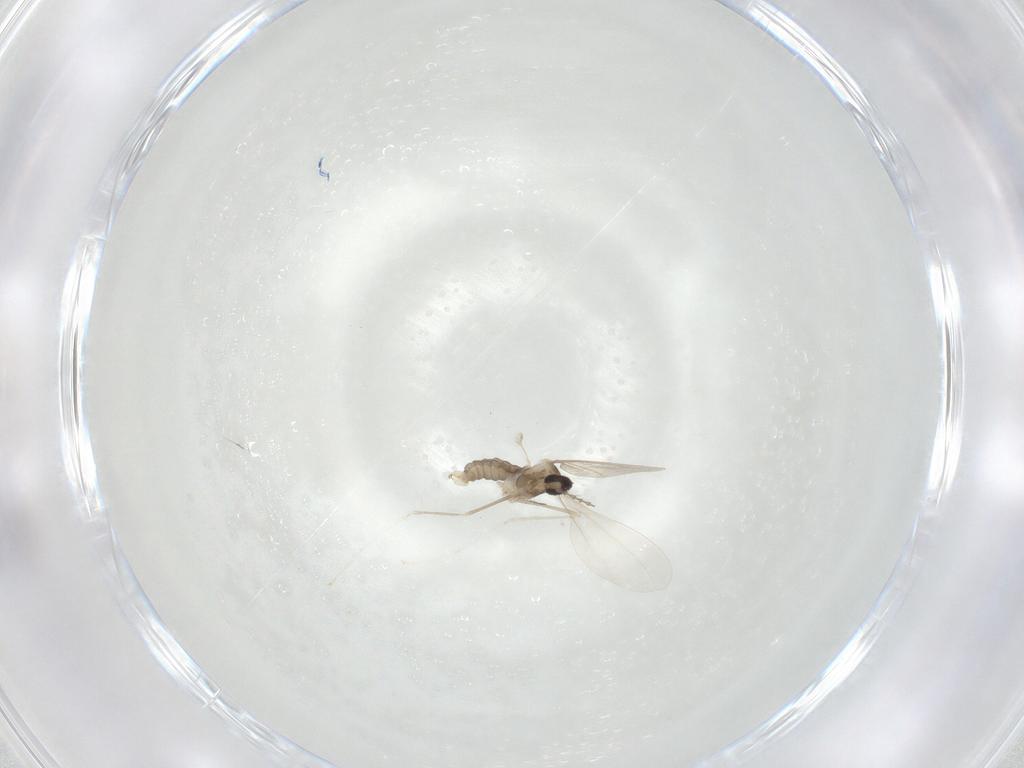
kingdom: Animalia
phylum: Arthropoda
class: Insecta
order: Diptera
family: Cecidomyiidae
